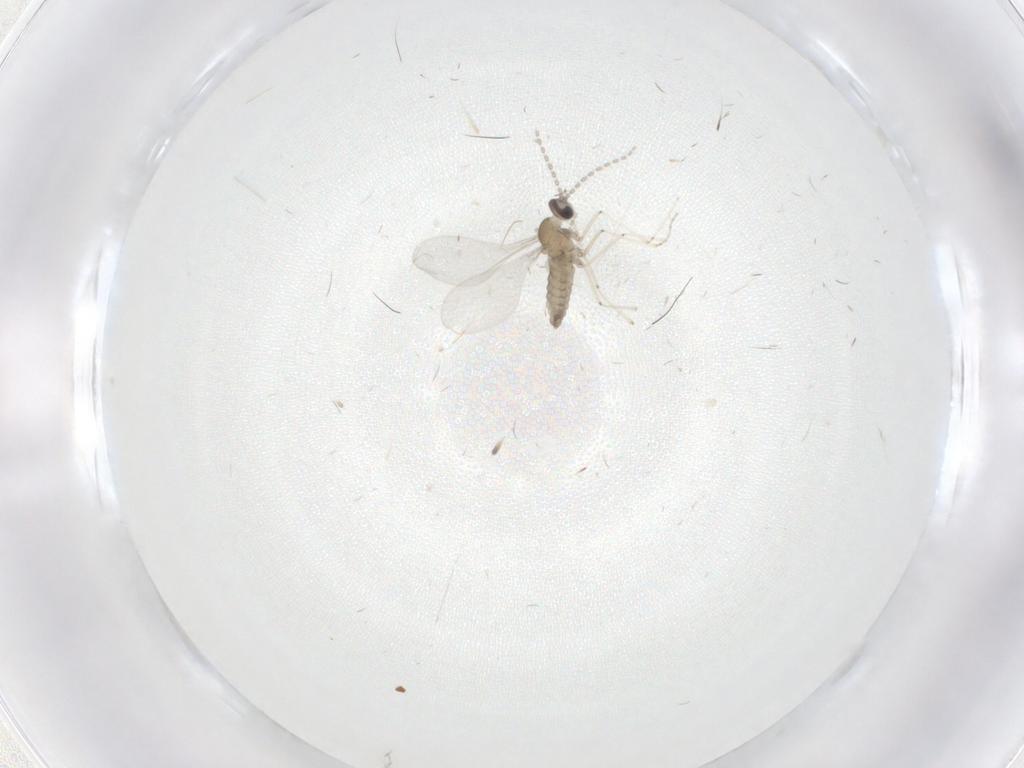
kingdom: Animalia
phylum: Arthropoda
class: Insecta
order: Diptera
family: Cecidomyiidae
